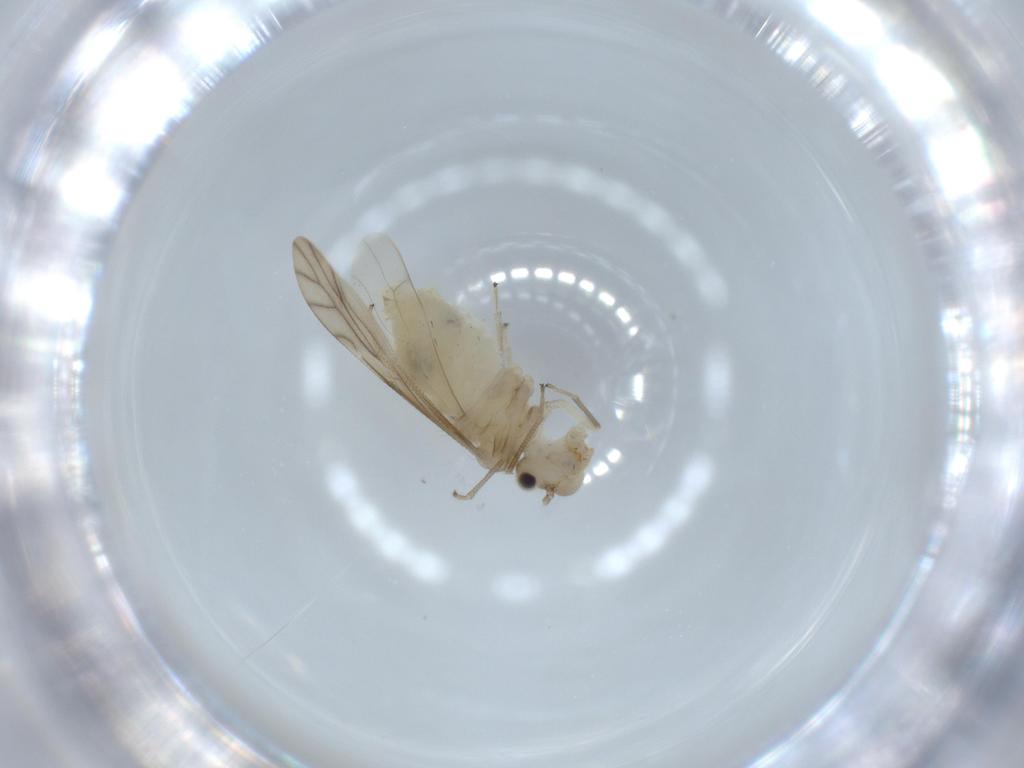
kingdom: Animalia
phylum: Arthropoda
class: Insecta
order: Psocodea
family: Caeciliusidae
